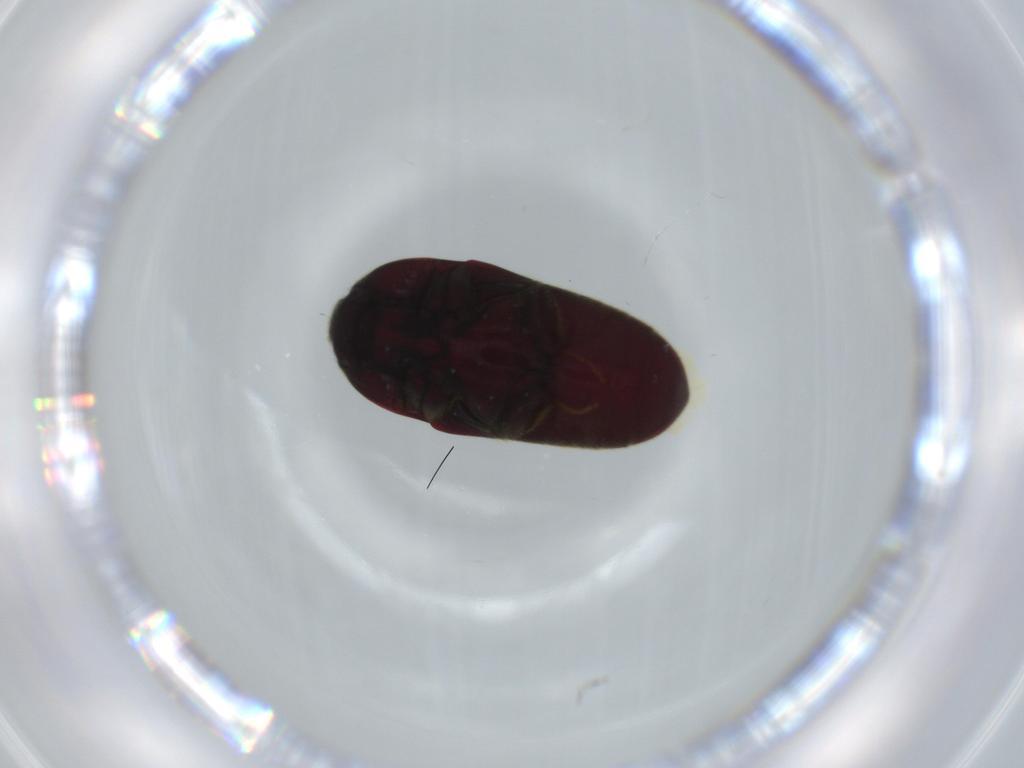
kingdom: Animalia
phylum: Arthropoda
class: Insecta
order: Coleoptera
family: Throscidae
